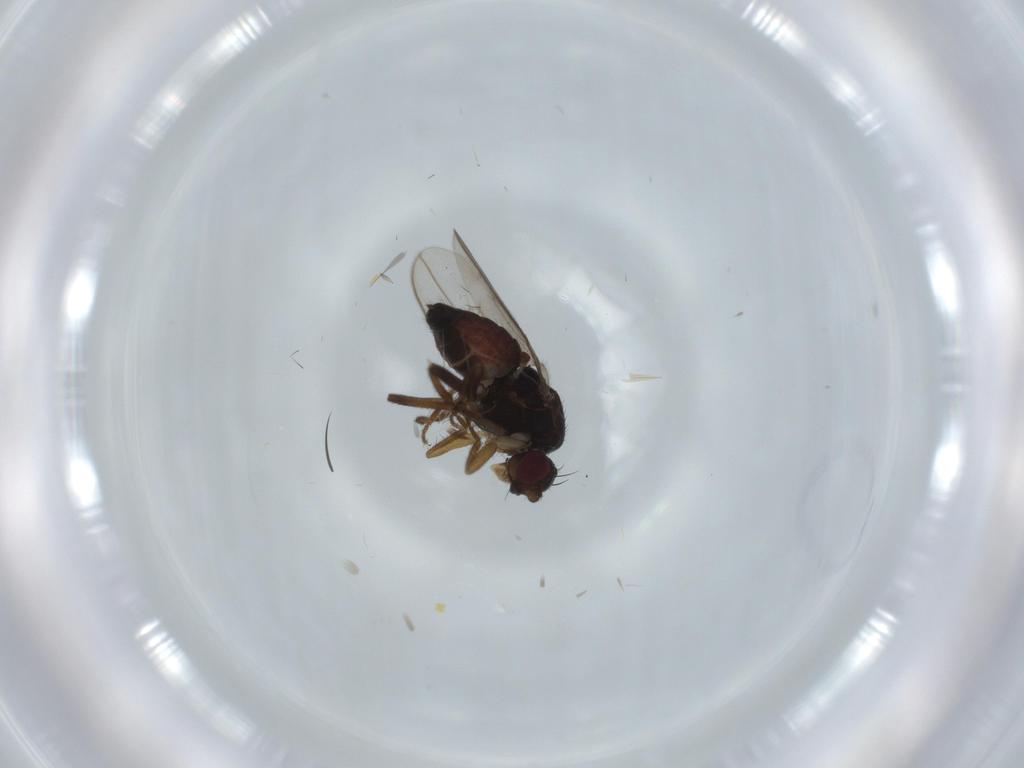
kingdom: Animalia
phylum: Arthropoda
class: Insecta
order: Diptera
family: Sphaeroceridae
